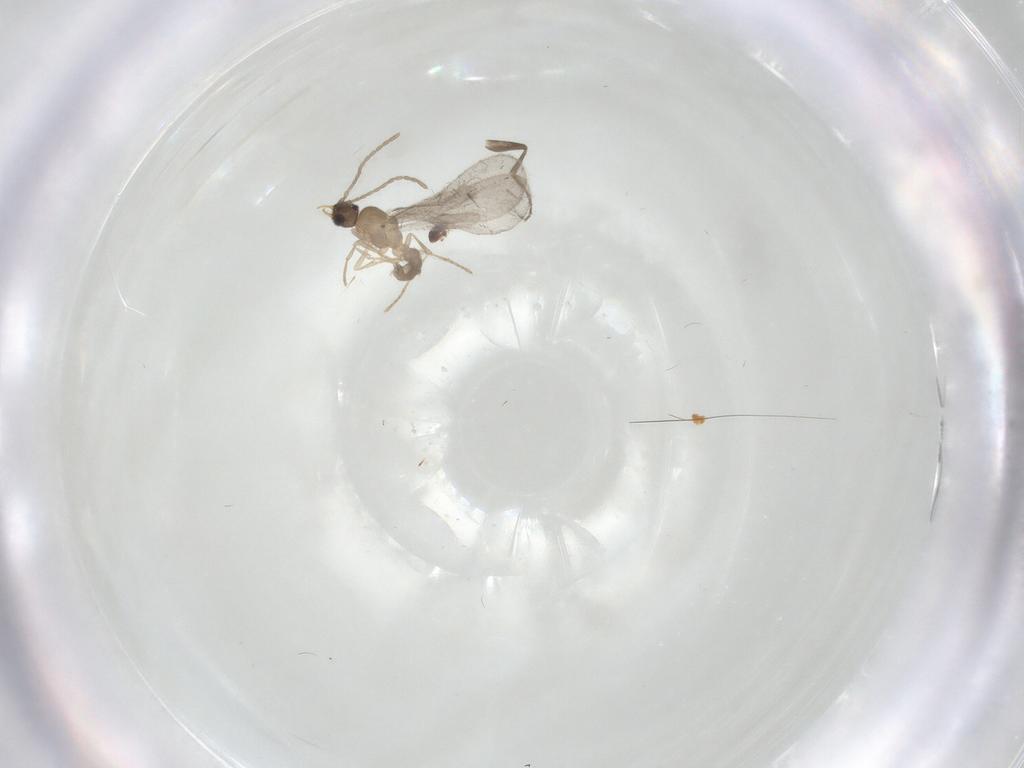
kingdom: Animalia
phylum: Arthropoda
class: Insecta
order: Hymenoptera
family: Formicidae
